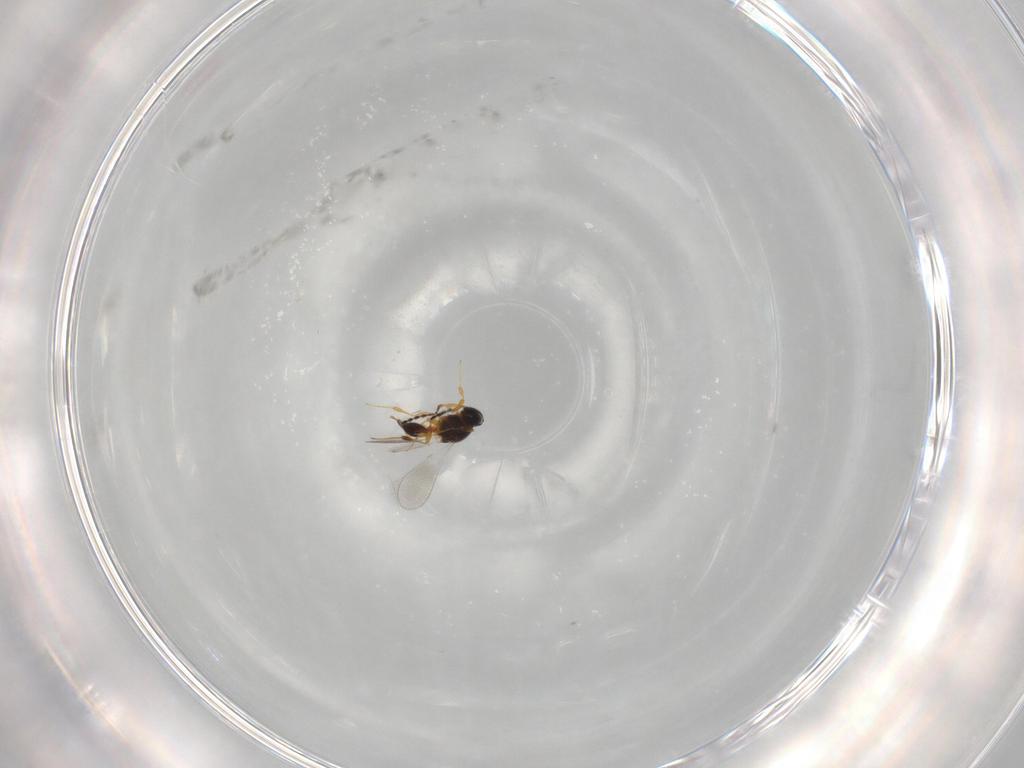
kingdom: Animalia
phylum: Arthropoda
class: Insecta
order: Hymenoptera
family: Platygastridae
